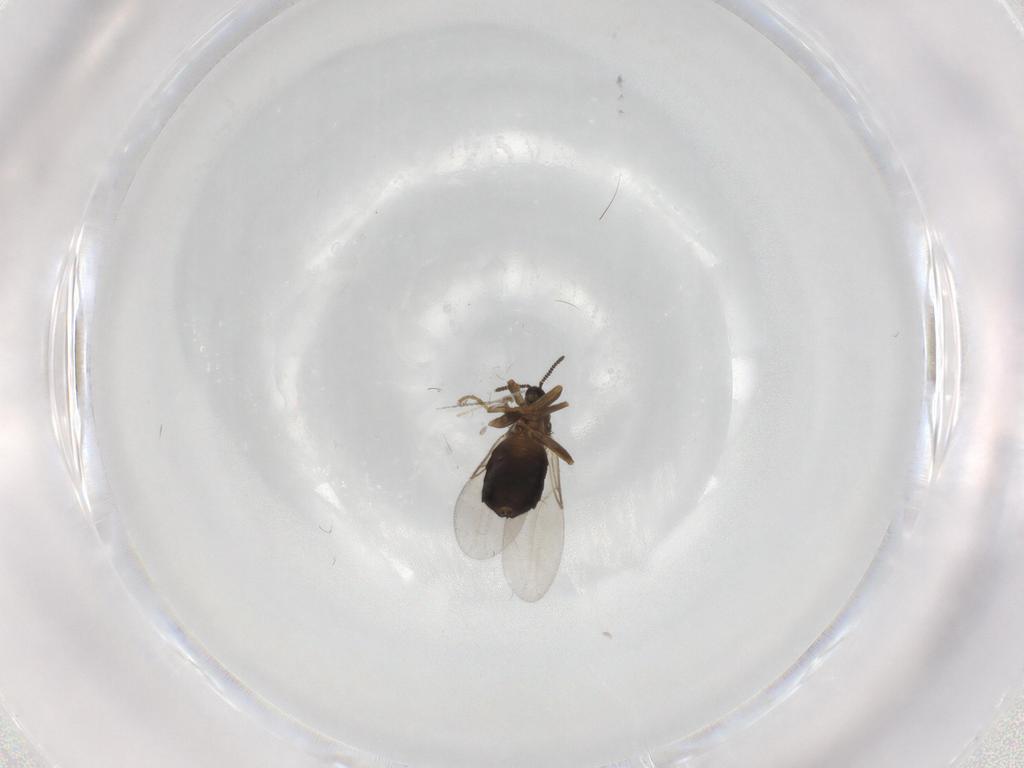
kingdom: Animalia
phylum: Arthropoda
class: Insecta
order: Diptera
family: Scatopsidae
